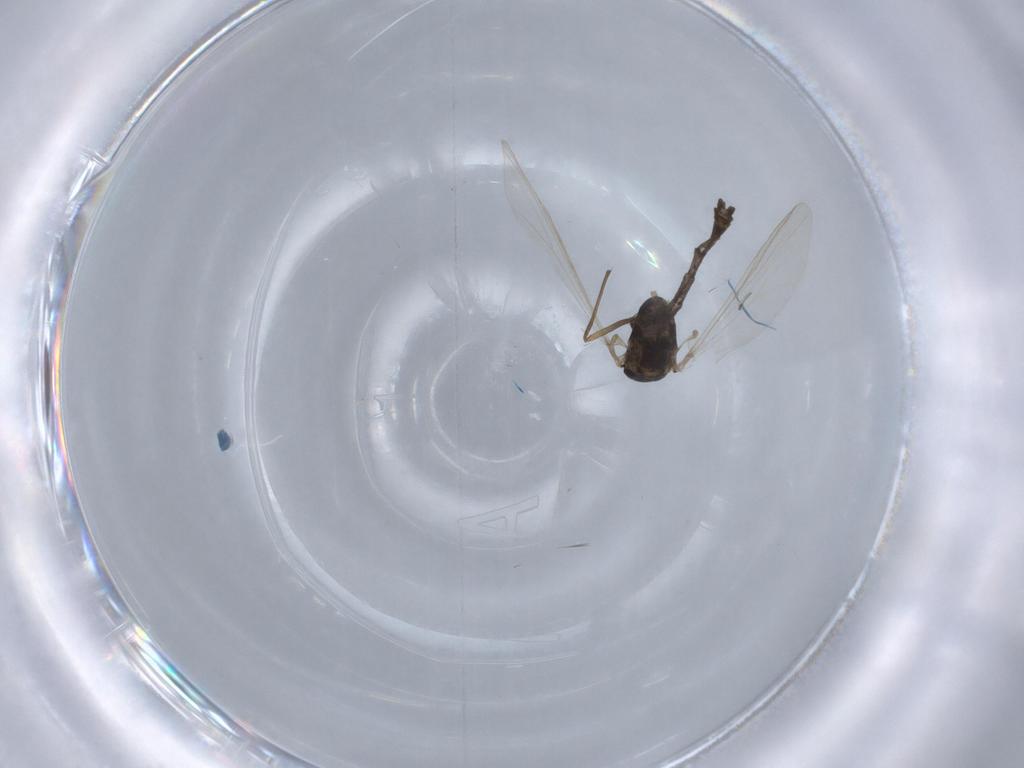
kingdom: Animalia
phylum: Arthropoda
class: Insecta
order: Diptera
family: Chironomidae
